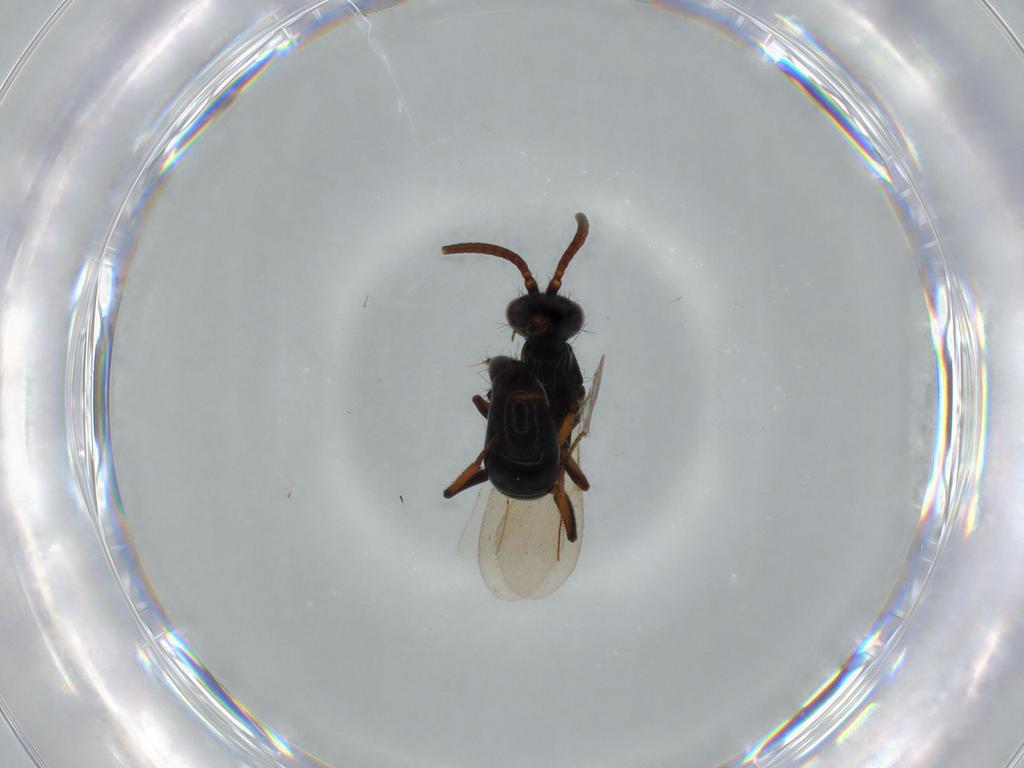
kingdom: Animalia
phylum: Arthropoda
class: Insecta
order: Hymenoptera
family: Bethylidae
